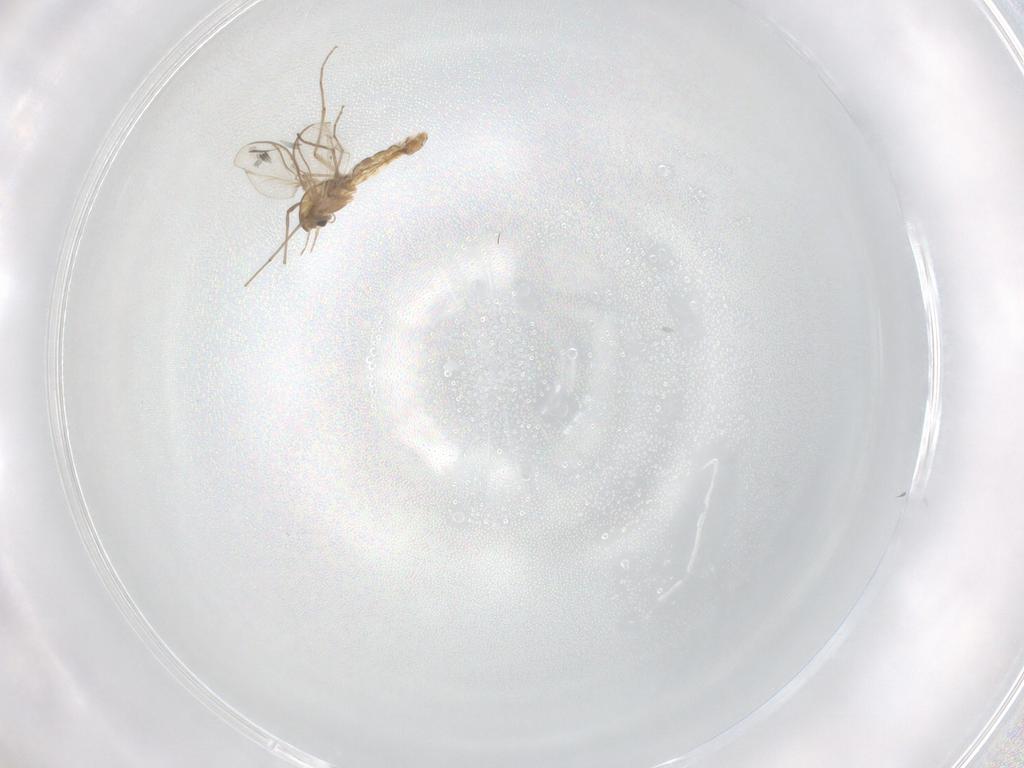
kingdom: Animalia
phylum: Arthropoda
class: Insecta
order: Diptera
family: Chironomidae
